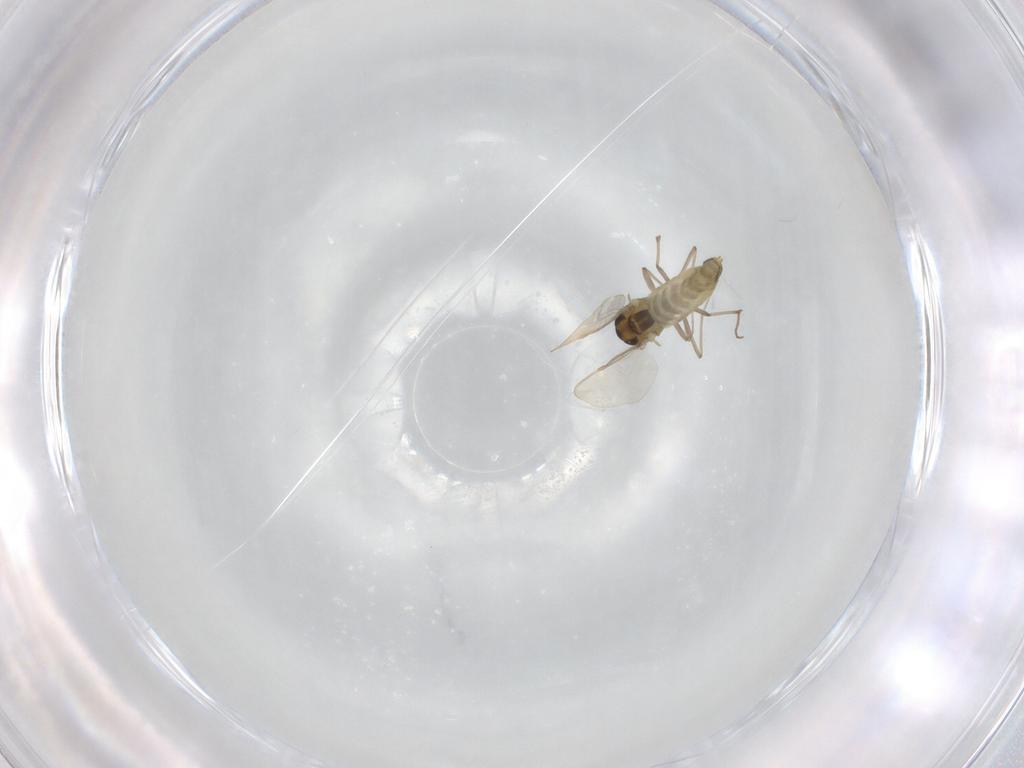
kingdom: Animalia
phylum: Arthropoda
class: Insecta
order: Diptera
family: Chironomidae
